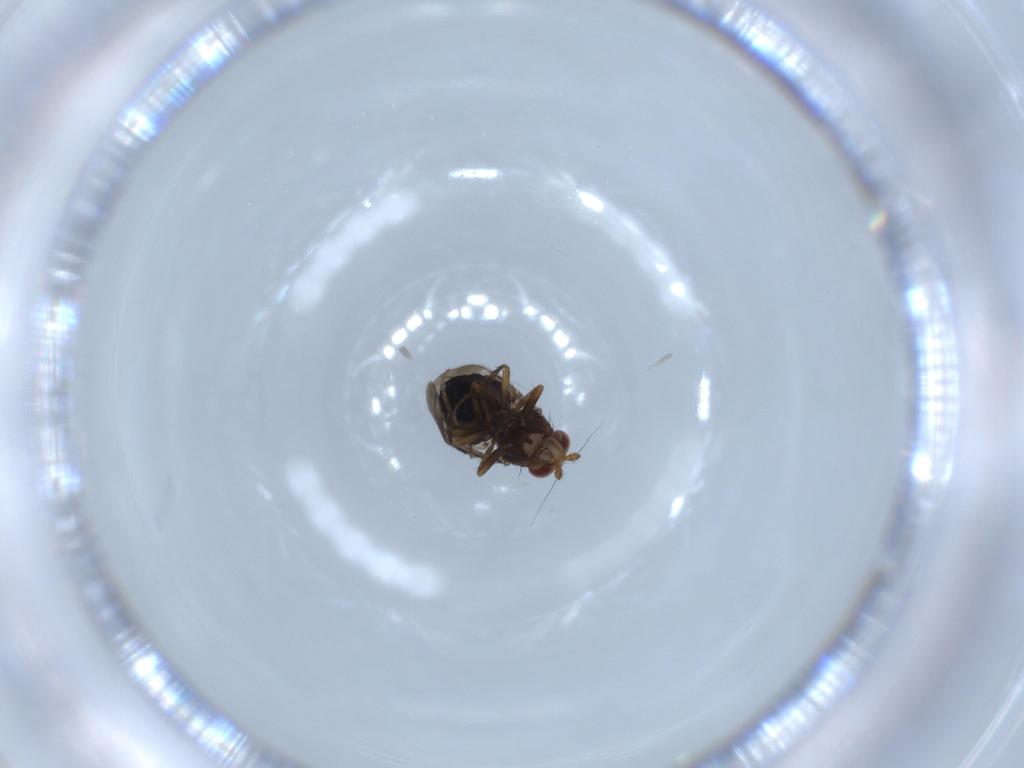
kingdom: Animalia
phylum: Arthropoda
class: Insecta
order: Diptera
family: Sphaeroceridae
